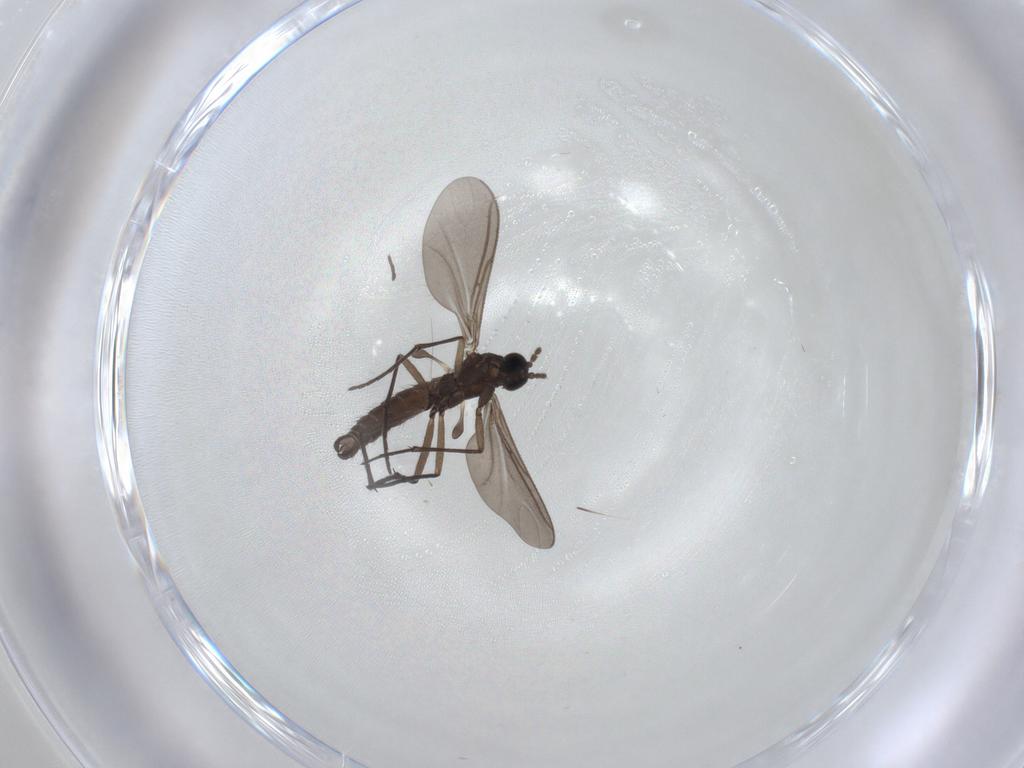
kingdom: Animalia
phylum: Arthropoda
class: Insecta
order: Diptera
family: Phoridae
